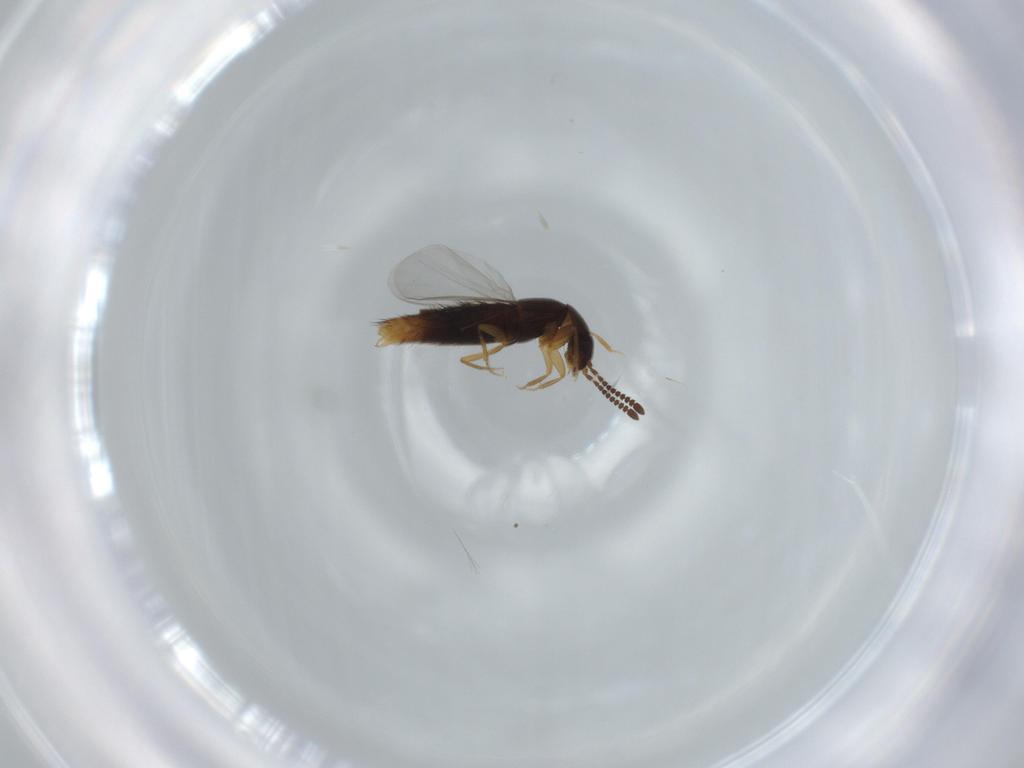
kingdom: Animalia
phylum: Arthropoda
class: Insecta
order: Coleoptera
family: Staphylinidae
